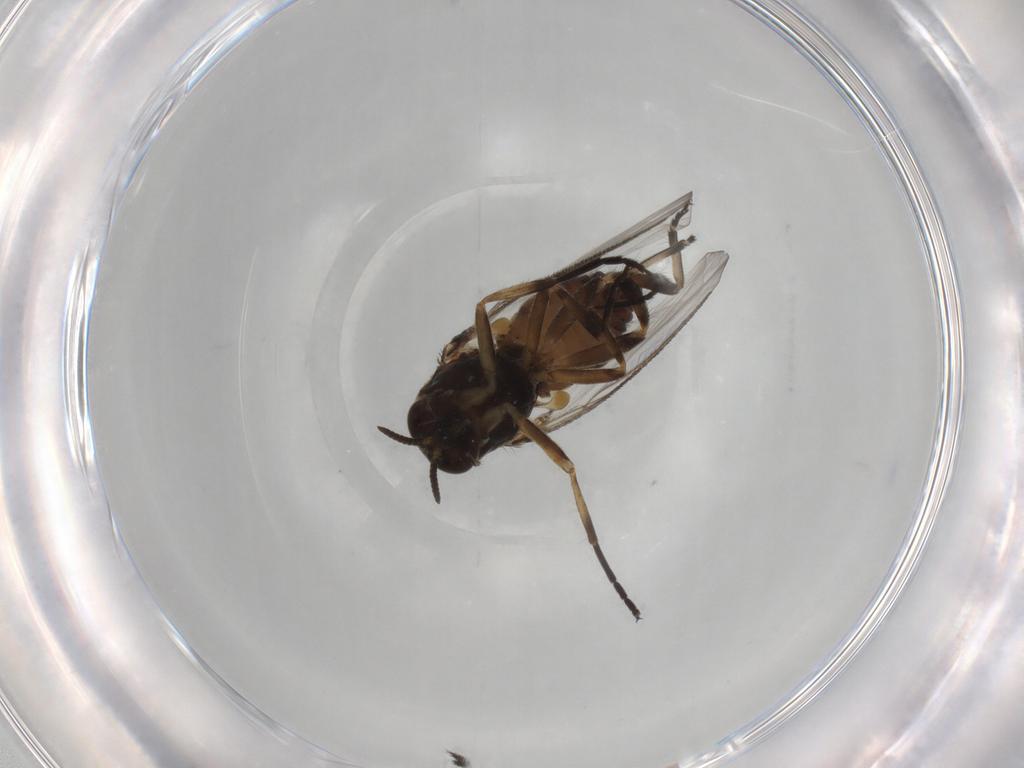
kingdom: Animalia
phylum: Arthropoda
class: Insecta
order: Diptera
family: Simuliidae
